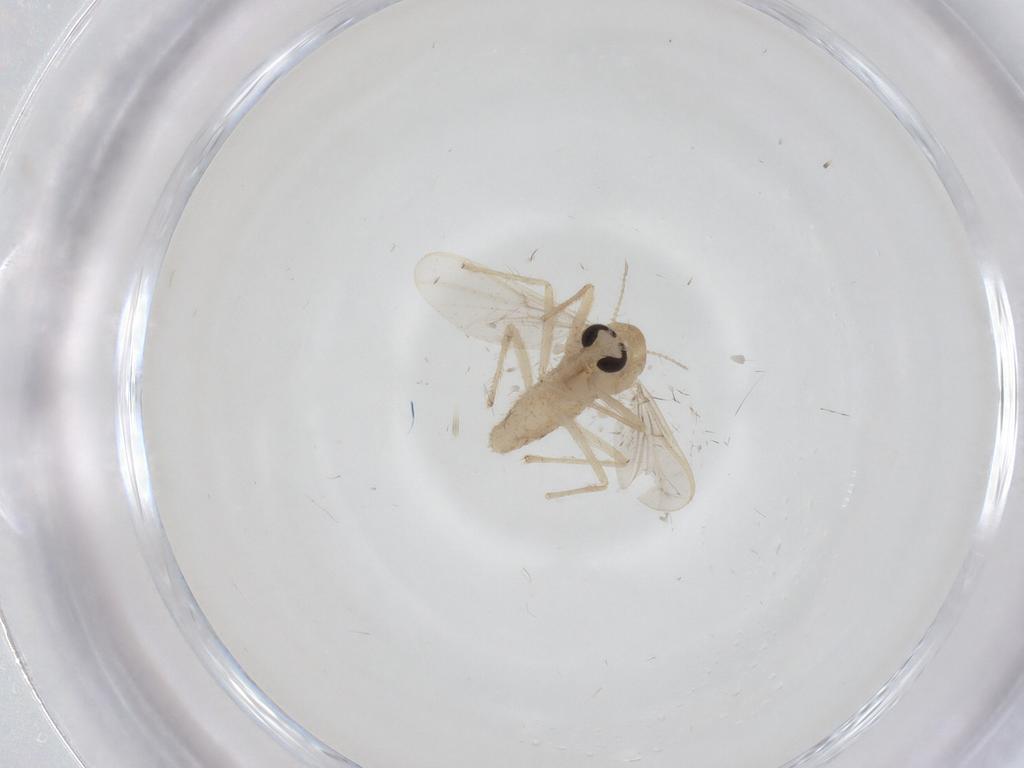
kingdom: Animalia
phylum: Arthropoda
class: Insecta
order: Diptera
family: Chironomidae
